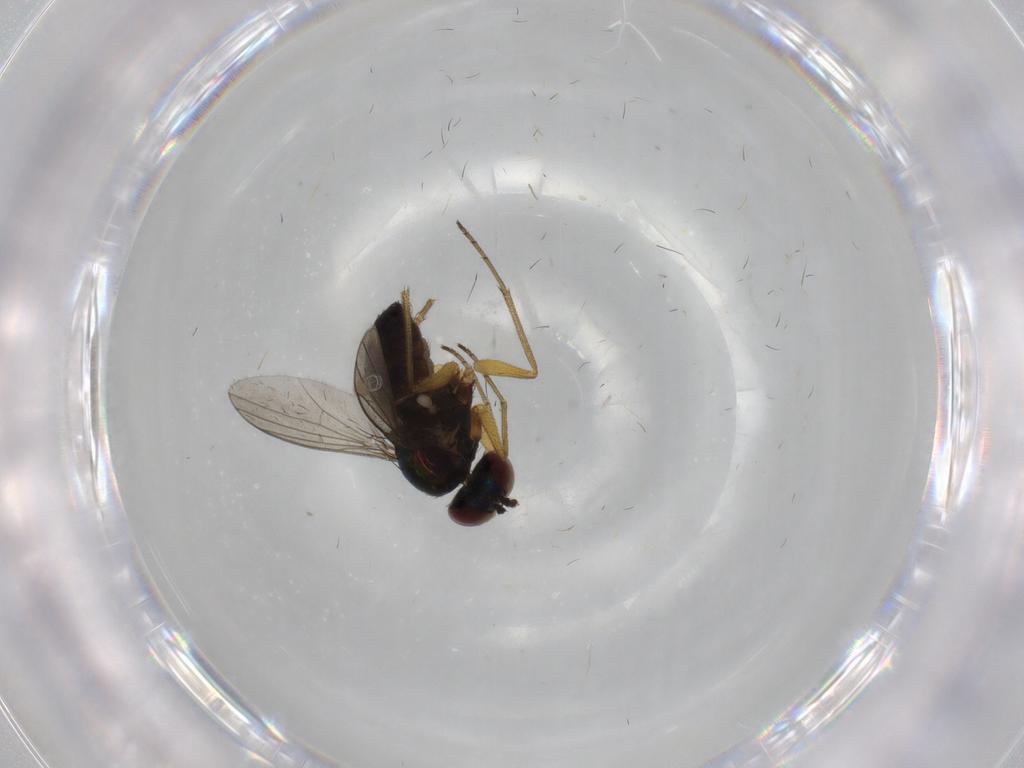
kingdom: Animalia
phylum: Arthropoda
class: Insecta
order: Diptera
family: Dolichopodidae
